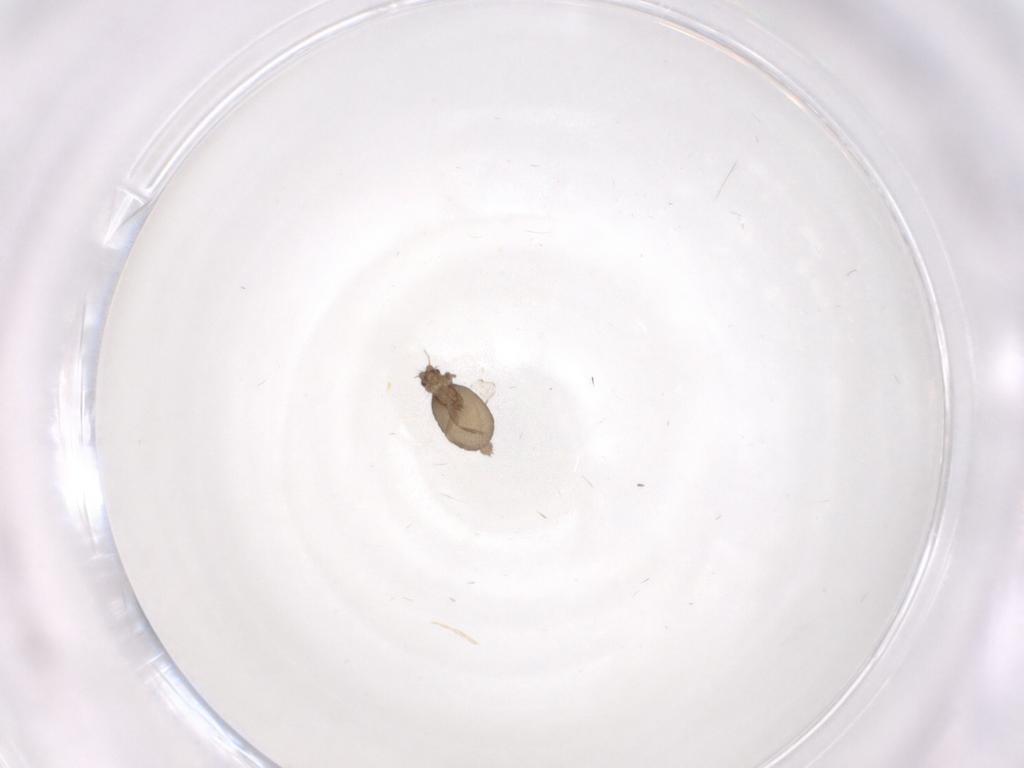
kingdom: Animalia
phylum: Arthropoda
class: Insecta
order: Diptera
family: Phoridae
